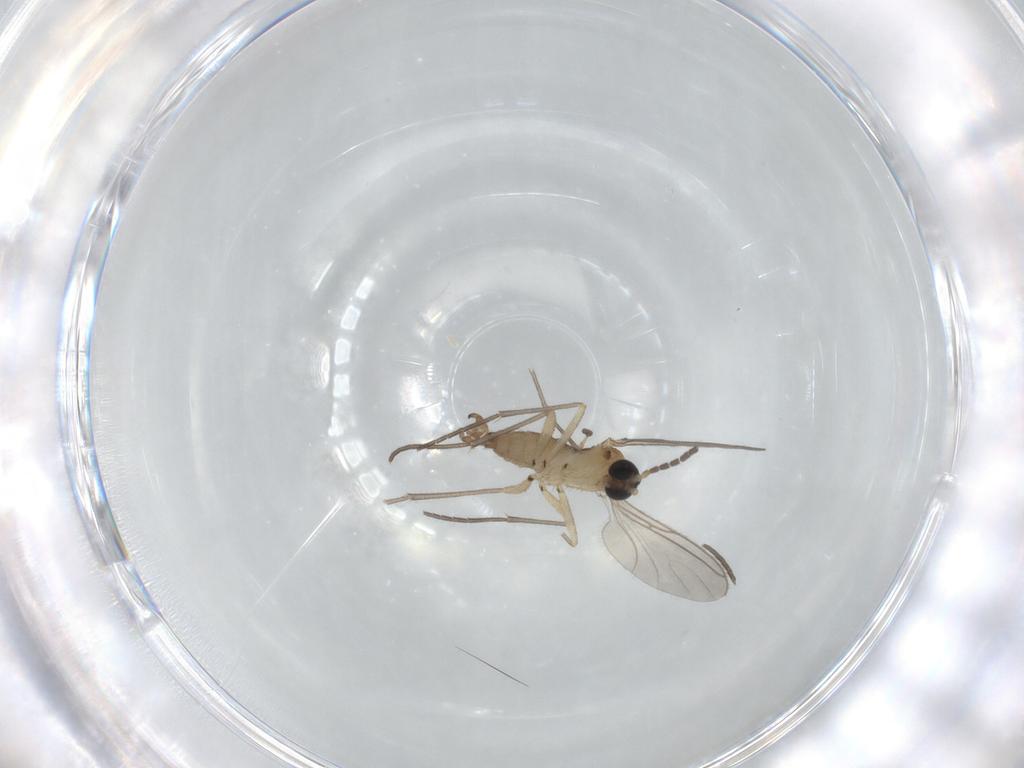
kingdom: Animalia
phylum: Arthropoda
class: Insecta
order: Diptera
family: Sciaridae
